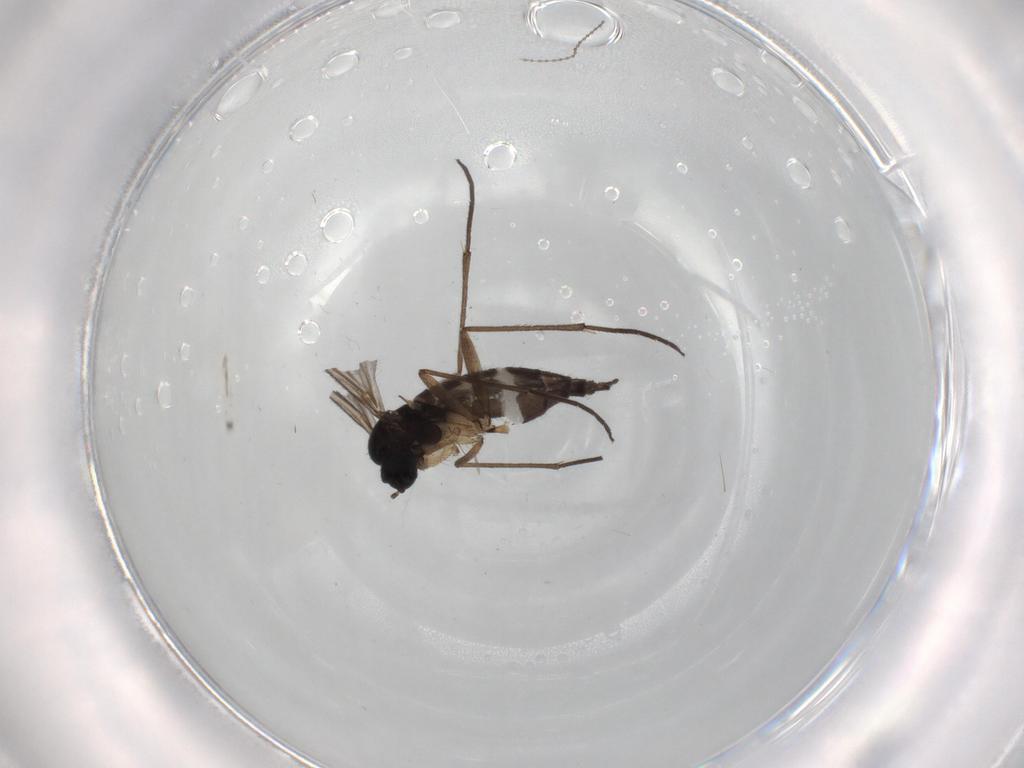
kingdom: Animalia
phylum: Arthropoda
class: Insecta
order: Diptera
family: Sciaridae
